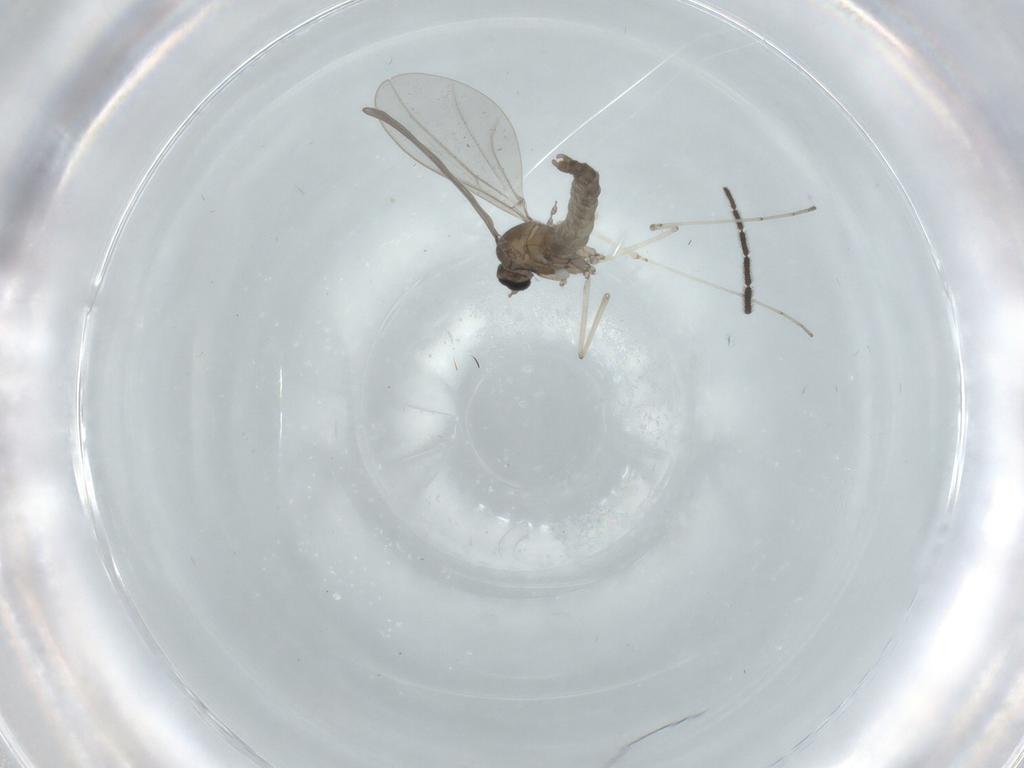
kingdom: Animalia
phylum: Arthropoda
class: Insecta
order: Diptera
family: Cecidomyiidae
